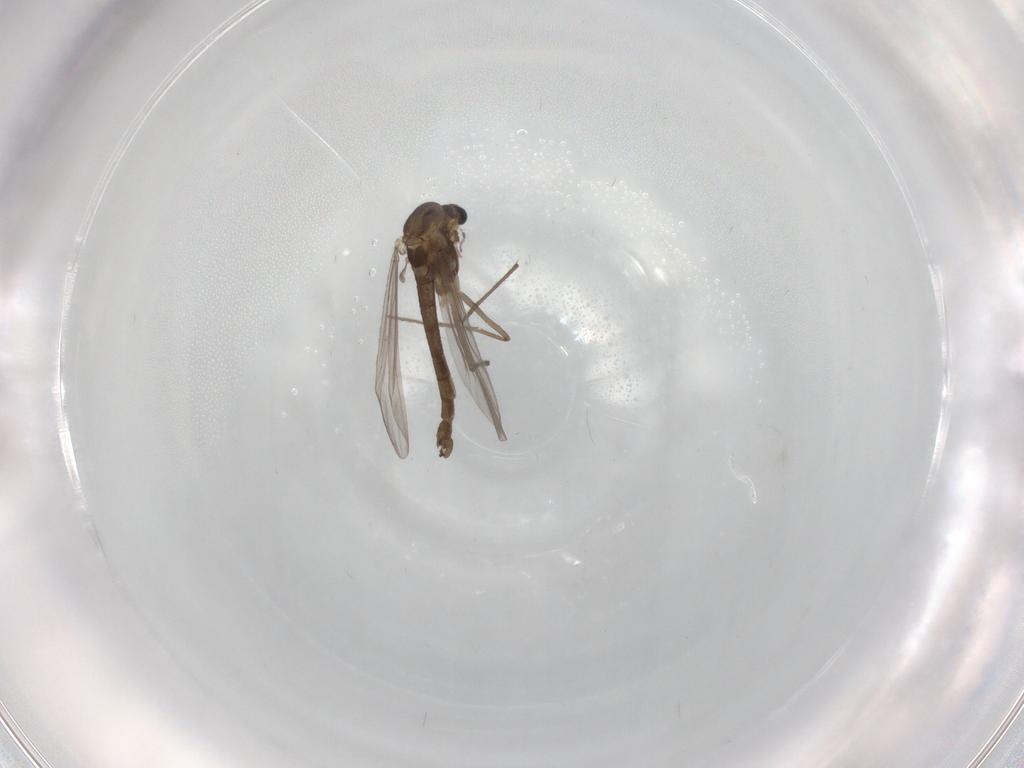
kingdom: Animalia
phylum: Arthropoda
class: Insecta
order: Diptera
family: Chironomidae
